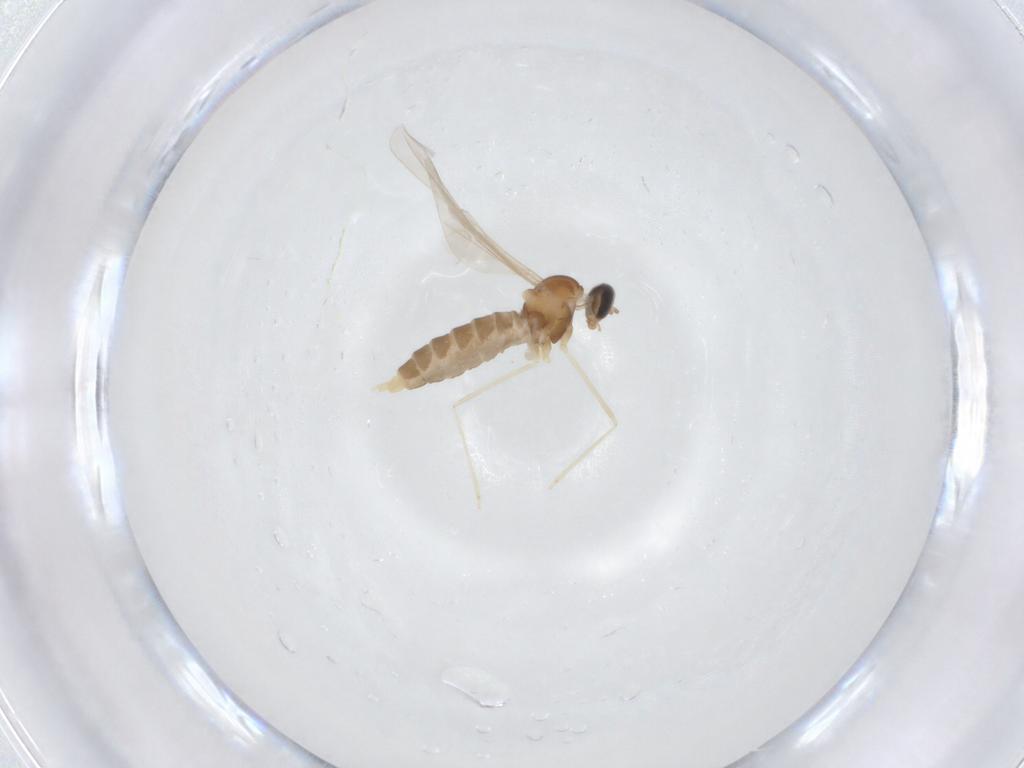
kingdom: Animalia
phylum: Arthropoda
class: Insecta
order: Diptera
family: Cecidomyiidae
